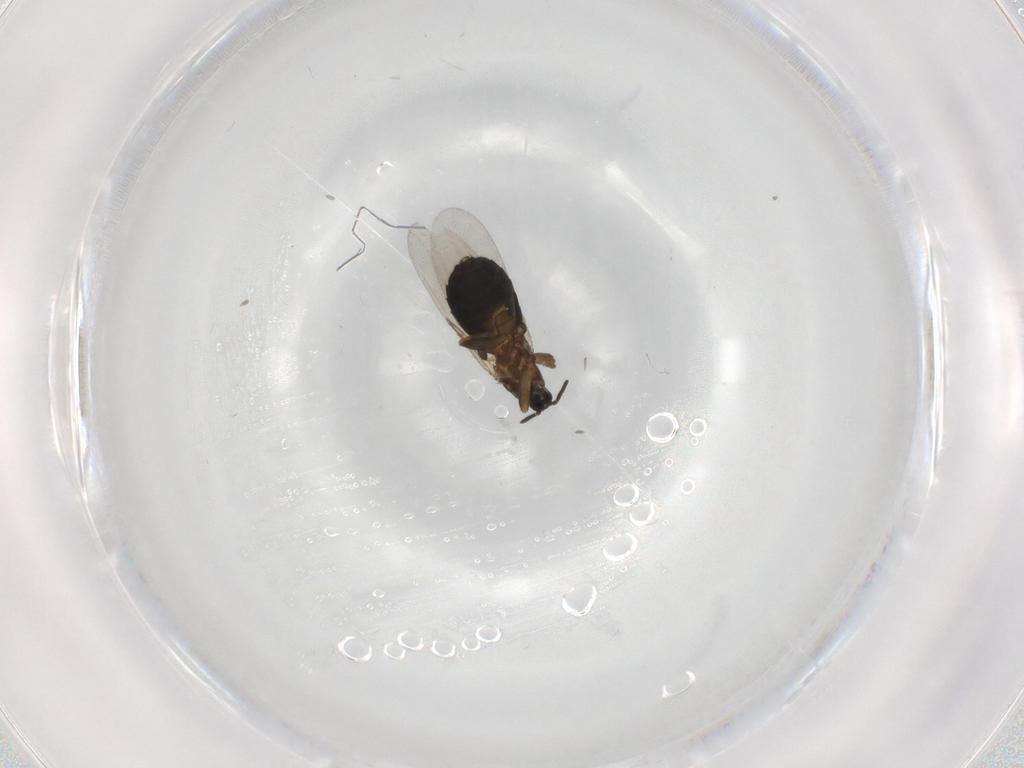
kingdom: Animalia
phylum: Arthropoda
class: Insecta
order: Diptera
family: Scatopsidae
